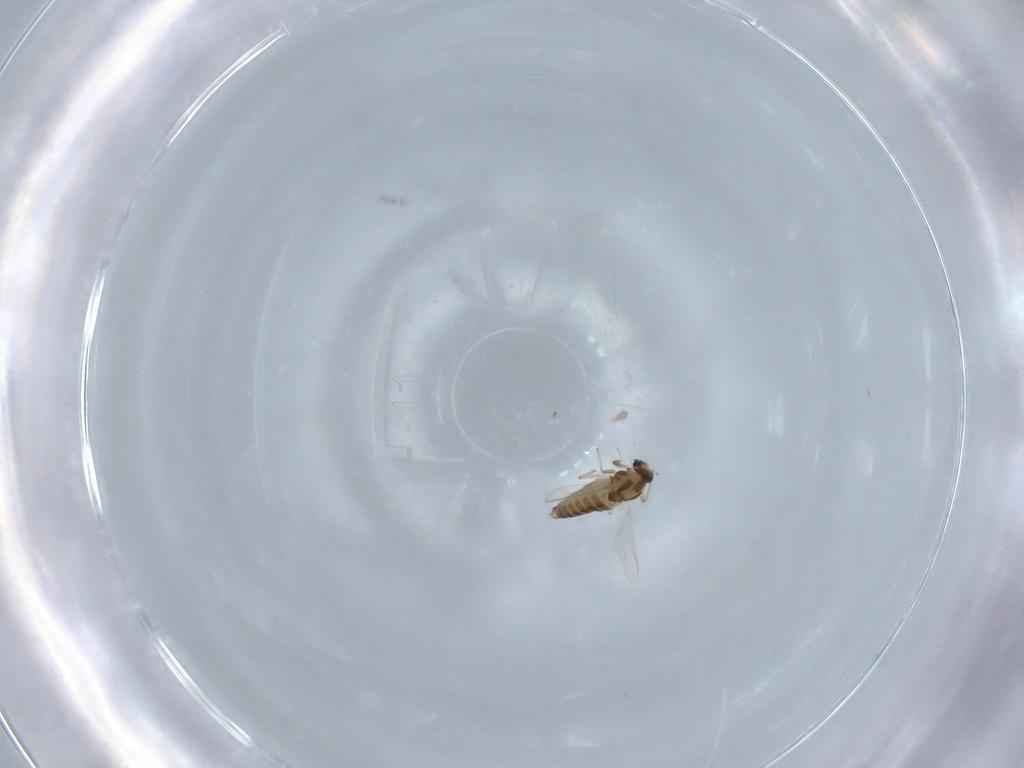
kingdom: Animalia
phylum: Arthropoda
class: Insecta
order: Diptera
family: Chironomidae
